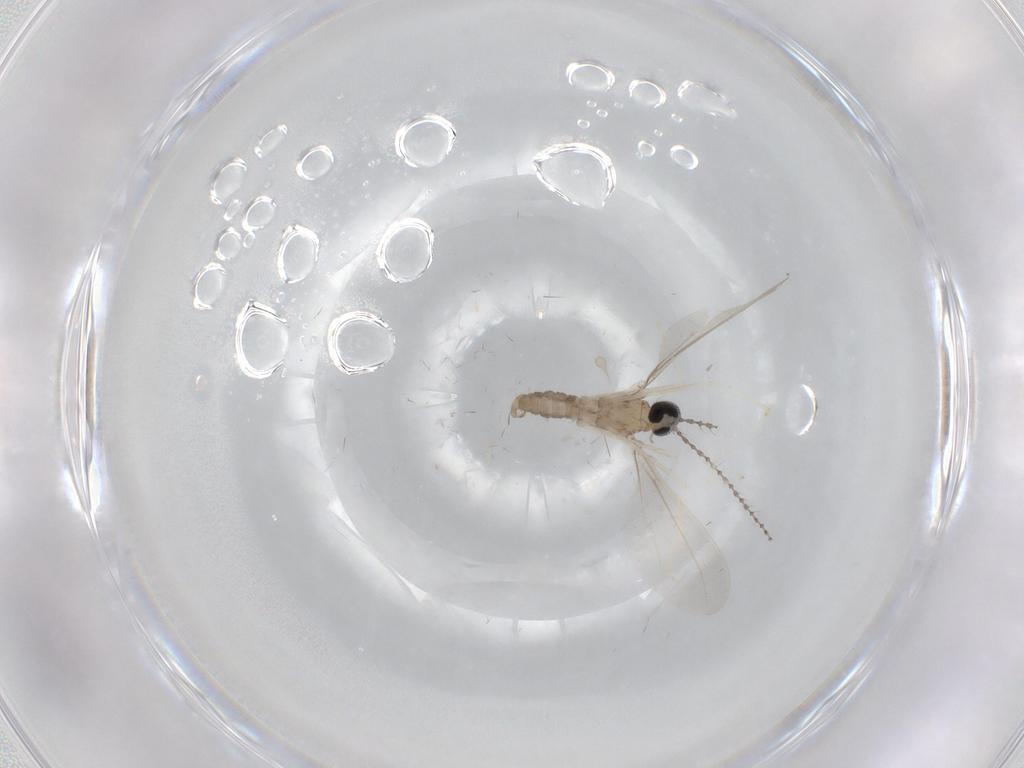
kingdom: Animalia
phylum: Arthropoda
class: Insecta
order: Diptera
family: Cecidomyiidae
